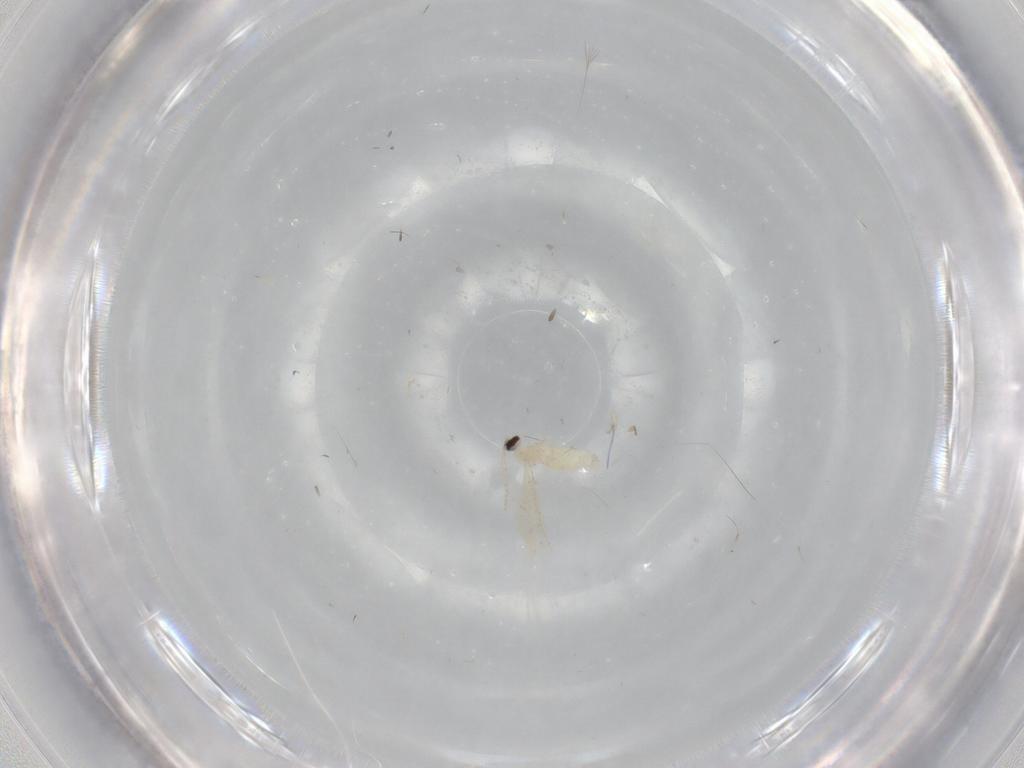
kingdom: Animalia
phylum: Arthropoda
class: Insecta
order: Diptera
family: Cecidomyiidae
